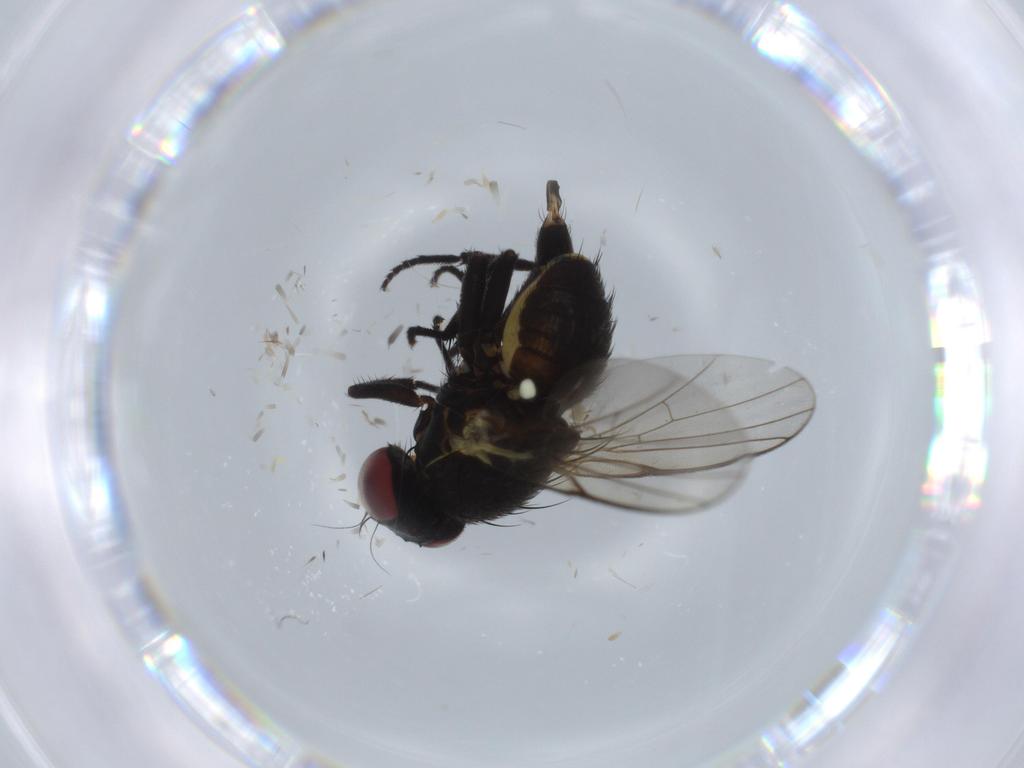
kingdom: Animalia
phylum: Arthropoda
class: Insecta
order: Diptera
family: Agromyzidae
